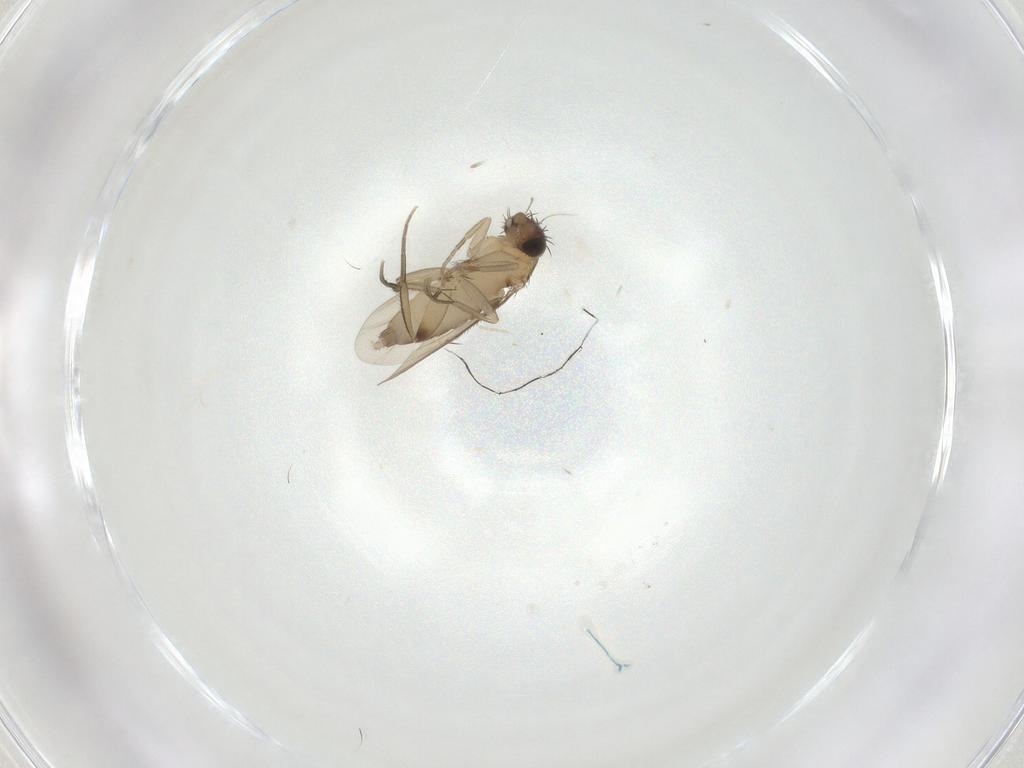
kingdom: Animalia
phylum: Arthropoda
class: Insecta
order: Diptera
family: Phoridae
